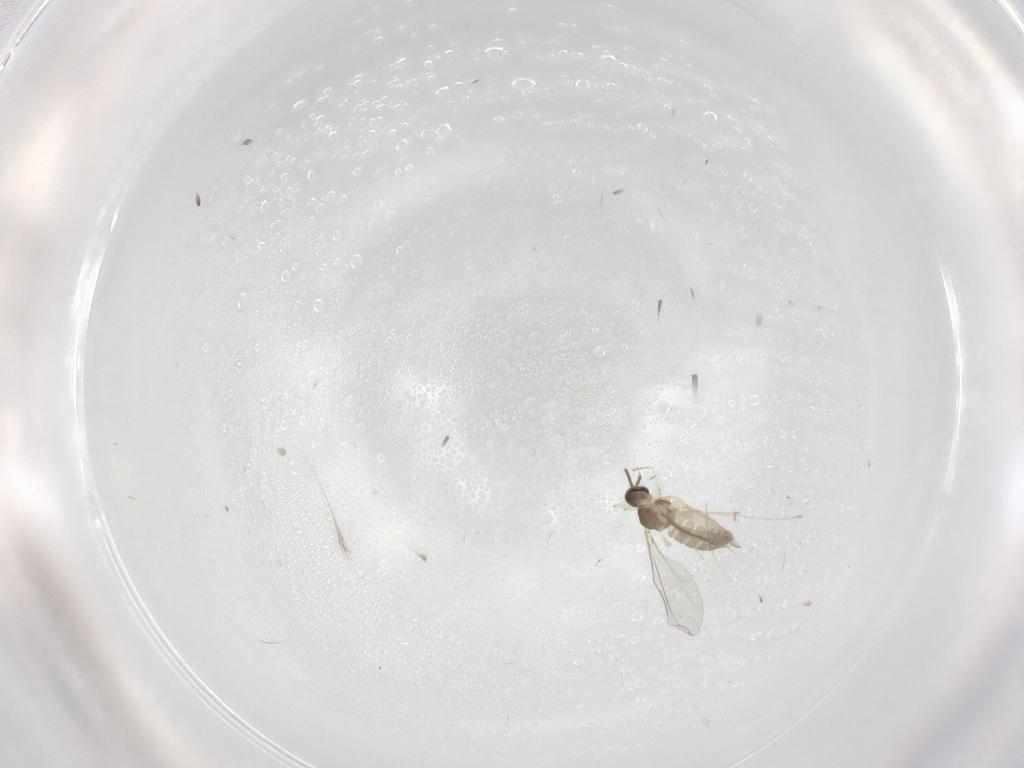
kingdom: Animalia
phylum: Arthropoda
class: Insecta
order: Diptera
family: Cecidomyiidae
